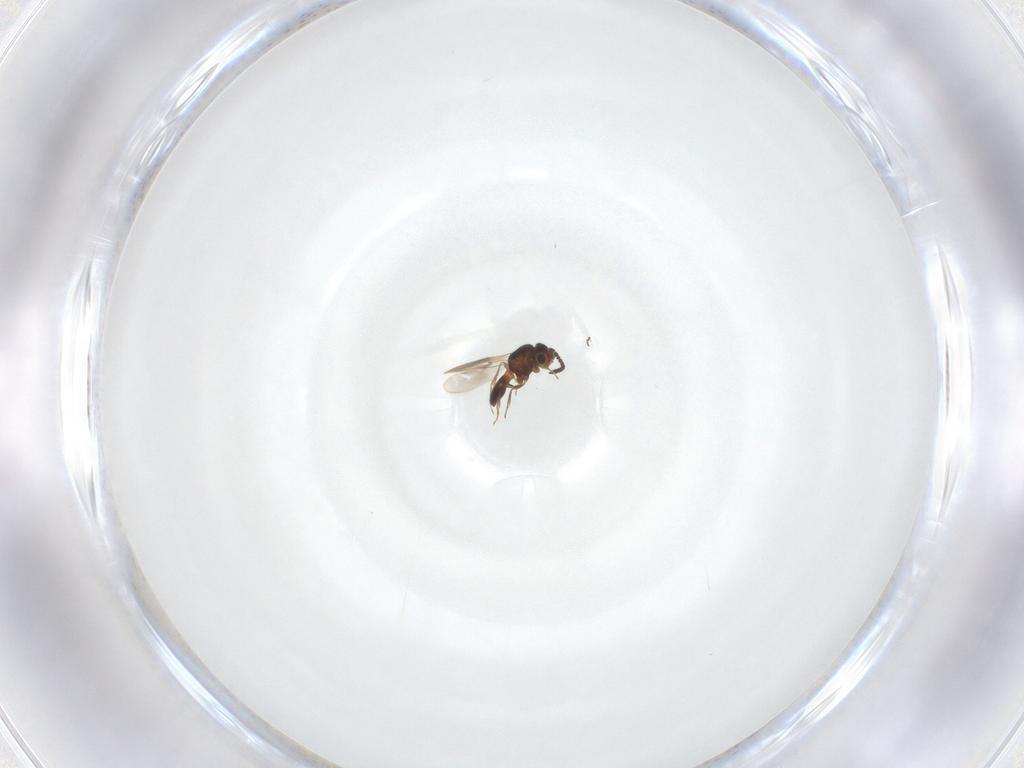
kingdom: Animalia
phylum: Arthropoda
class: Insecta
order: Hymenoptera
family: Scelionidae
